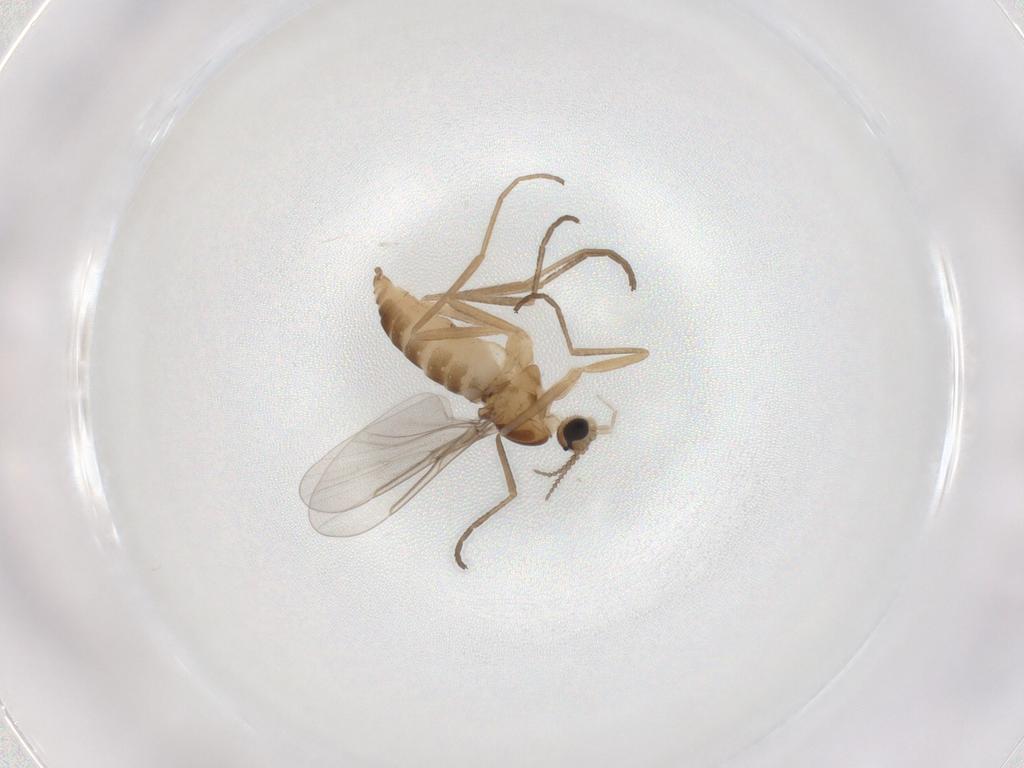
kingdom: Animalia
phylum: Arthropoda
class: Insecta
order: Diptera
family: Cecidomyiidae
